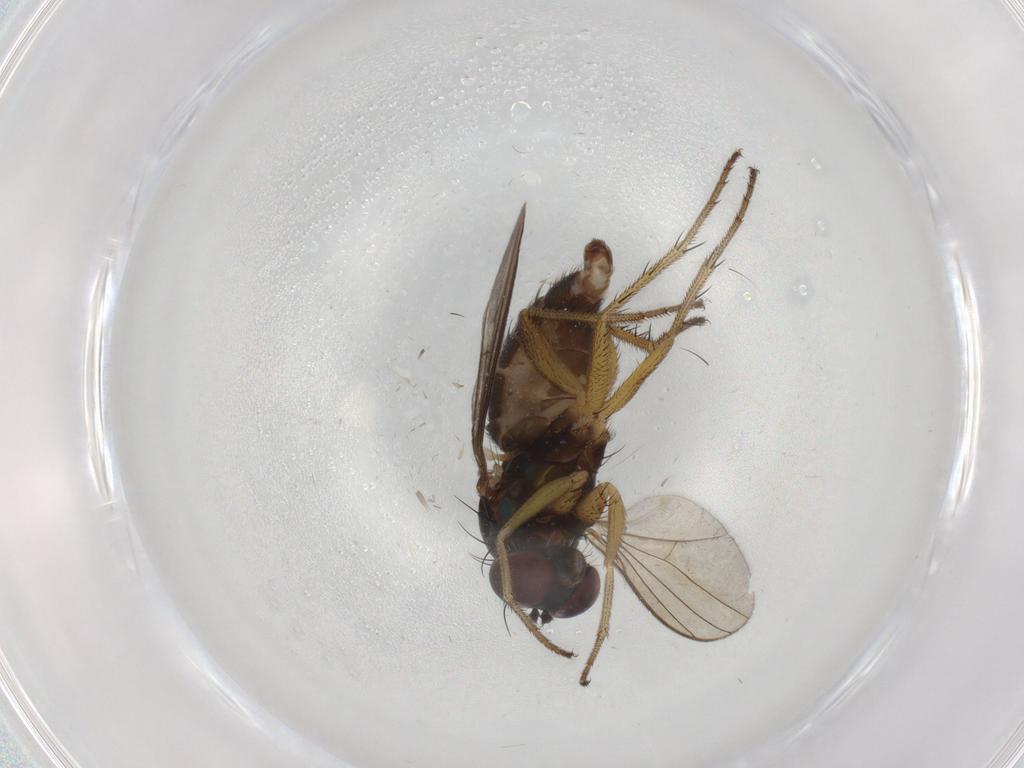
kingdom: Animalia
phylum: Arthropoda
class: Insecta
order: Diptera
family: Dolichopodidae
